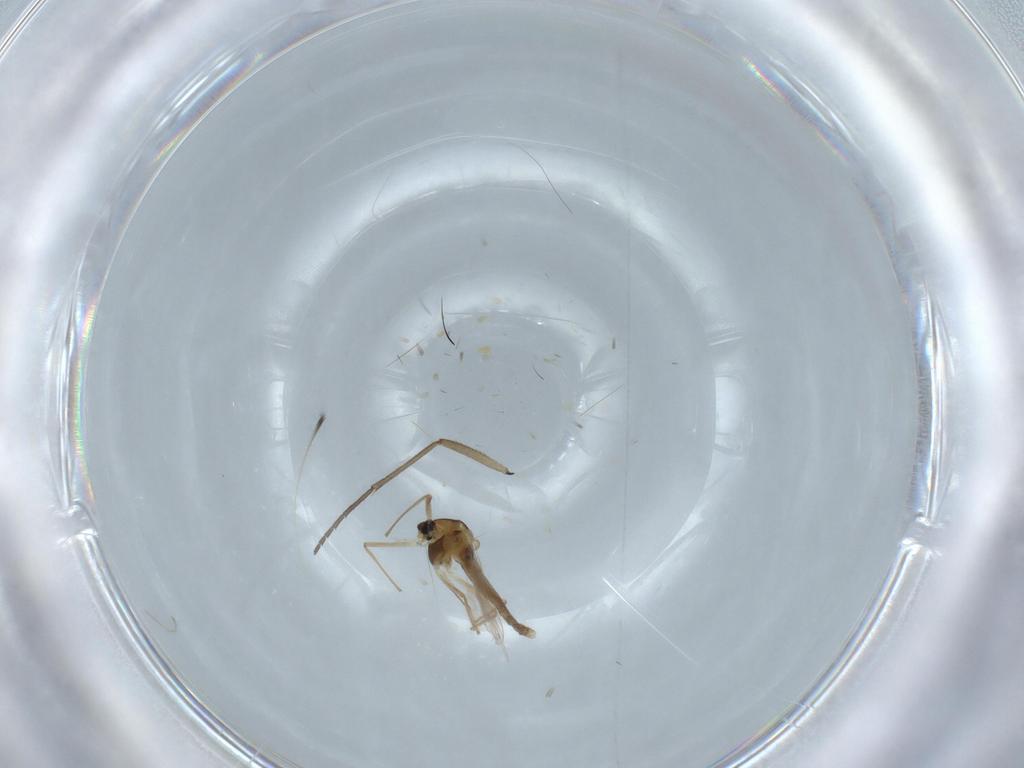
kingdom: Animalia
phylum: Arthropoda
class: Insecta
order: Diptera
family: Sciaridae
